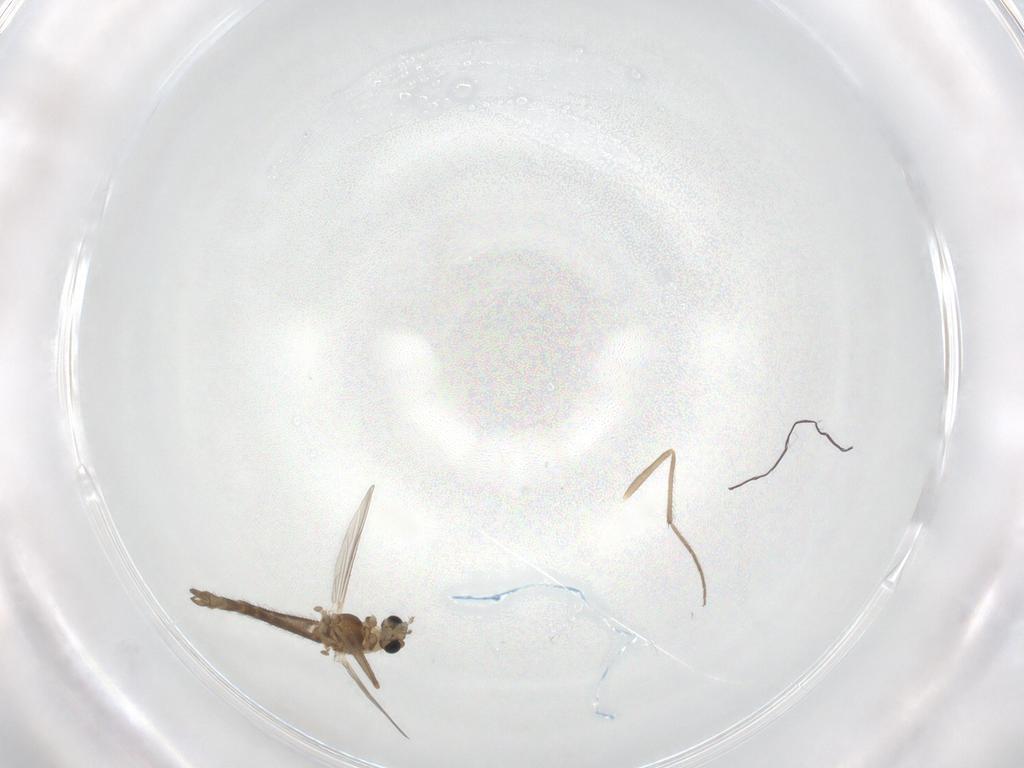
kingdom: Animalia
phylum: Arthropoda
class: Insecta
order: Diptera
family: Chironomidae
